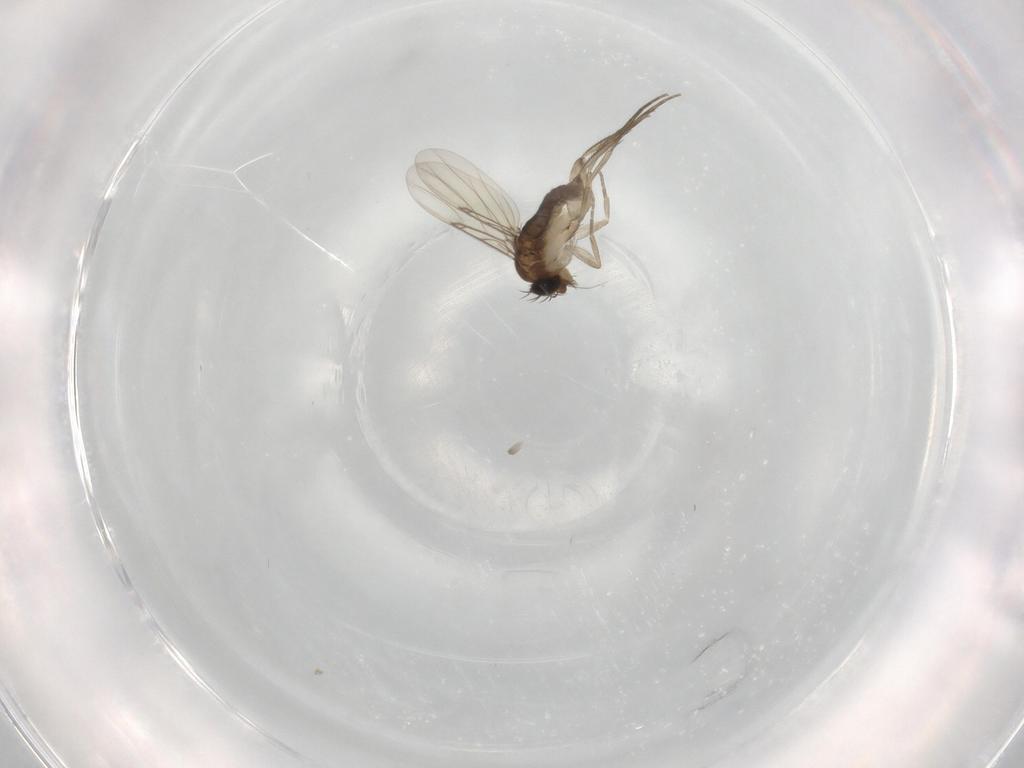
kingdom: Animalia
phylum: Arthropoda
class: Insecta
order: Diptera
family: Phoridae
